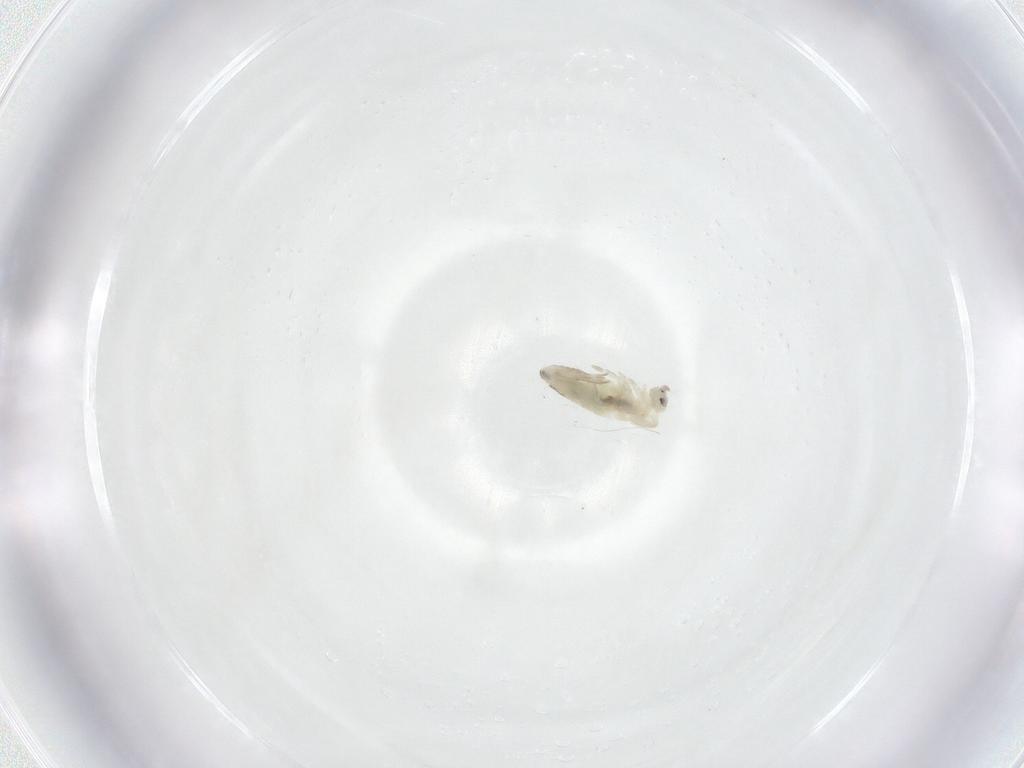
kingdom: Animalia
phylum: Arthropoda
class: Collembola
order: Entomobryomorpha
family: Entomobryidae
